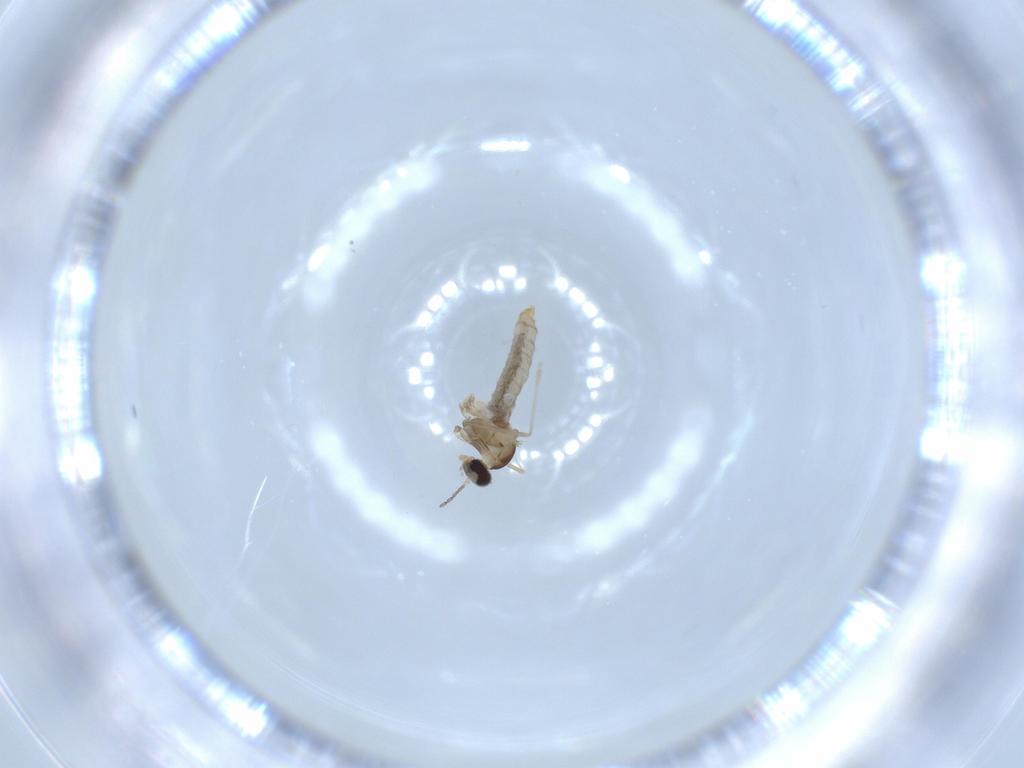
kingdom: Animalia
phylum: Arthropoda
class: Insecta
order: Diptera
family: Cecidomyiidae
